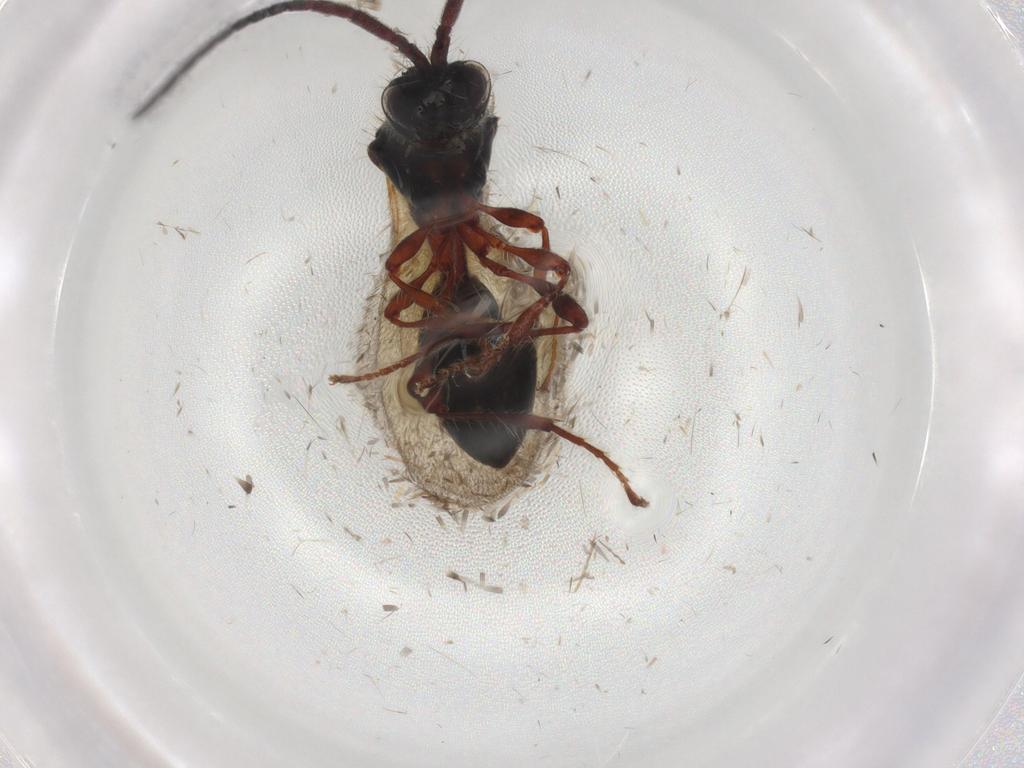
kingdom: Animalia
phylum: Arthropoda
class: Insecta
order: Hymenoptera
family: Diapriidae
